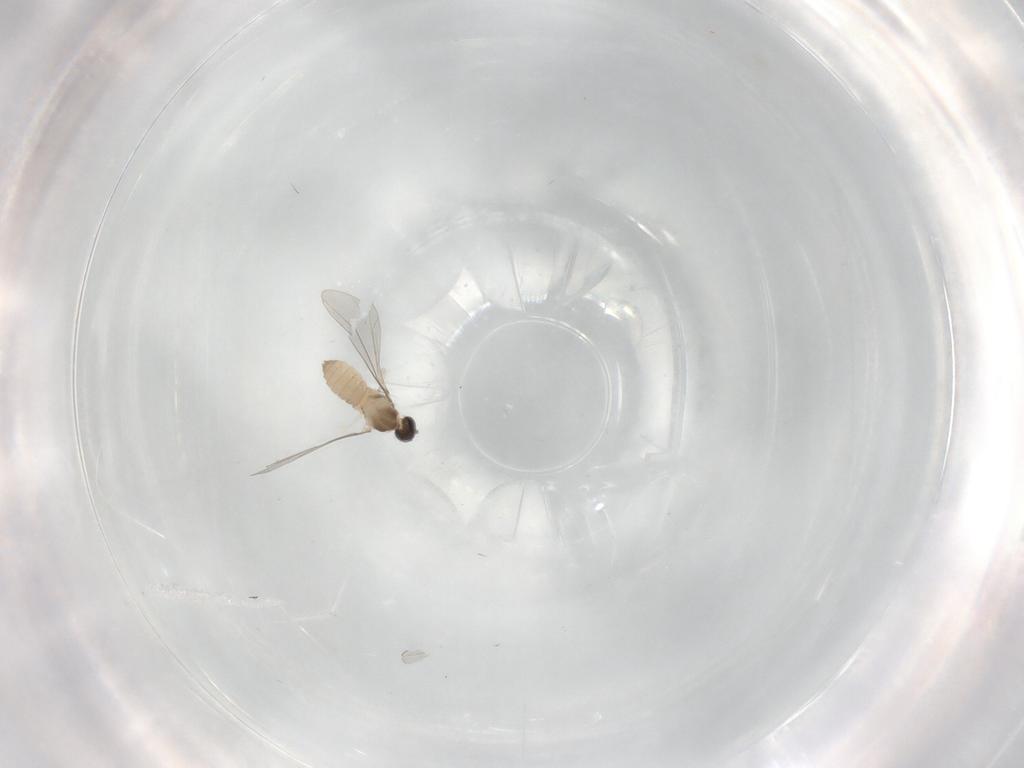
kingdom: Animalia
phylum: Arthropoda
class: Insecta
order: Diptera
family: Cecidomyiidae
